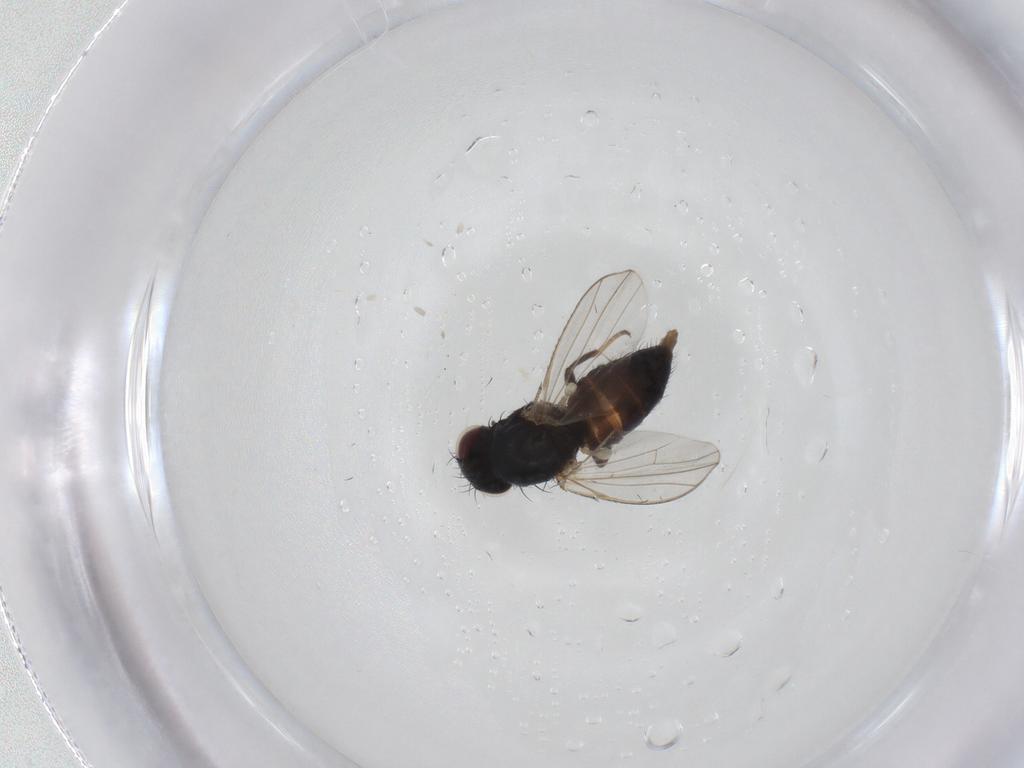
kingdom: Animalia
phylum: Arthropoda
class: Insecta
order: Diptera
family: Carnidae
